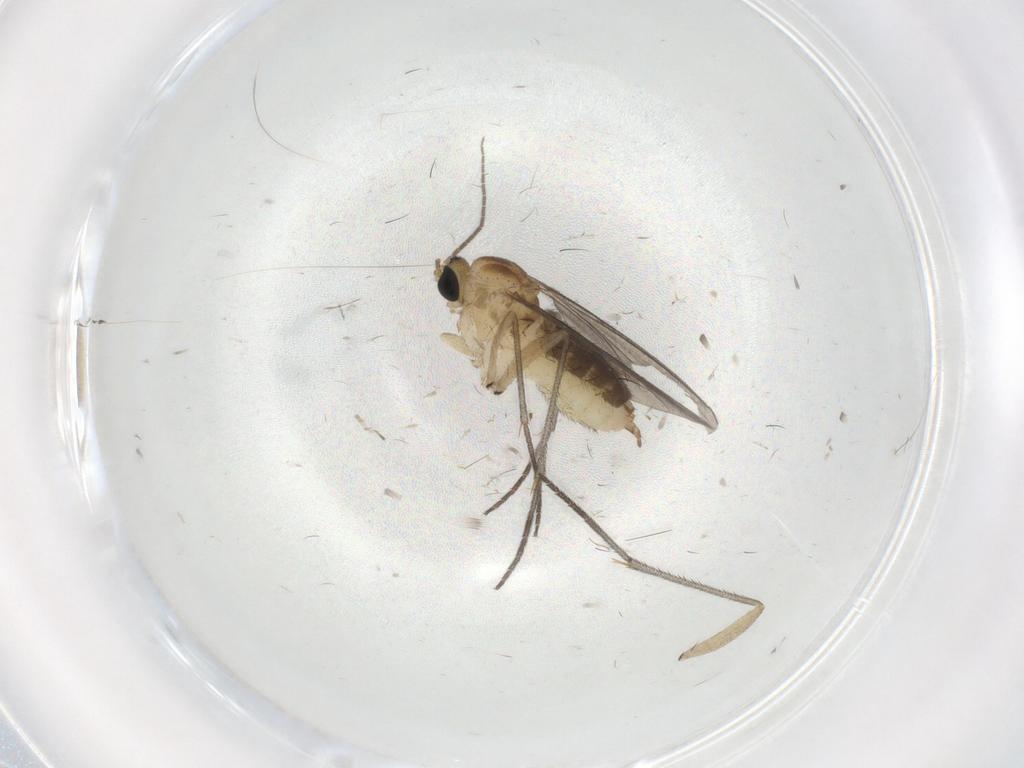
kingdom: Animalia
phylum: Arthropoda
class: Insecta
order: Diptera
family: Sciaridae
